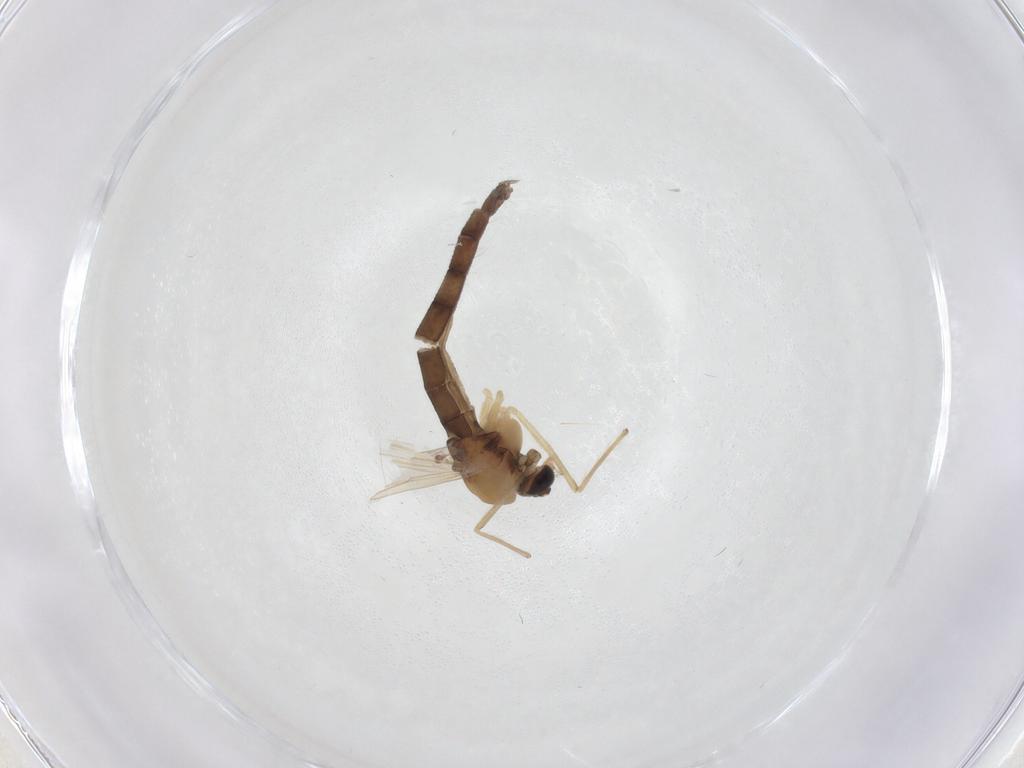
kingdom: Animalia
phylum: Arthropoda
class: Insecta
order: Diptera
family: Chironomidae
